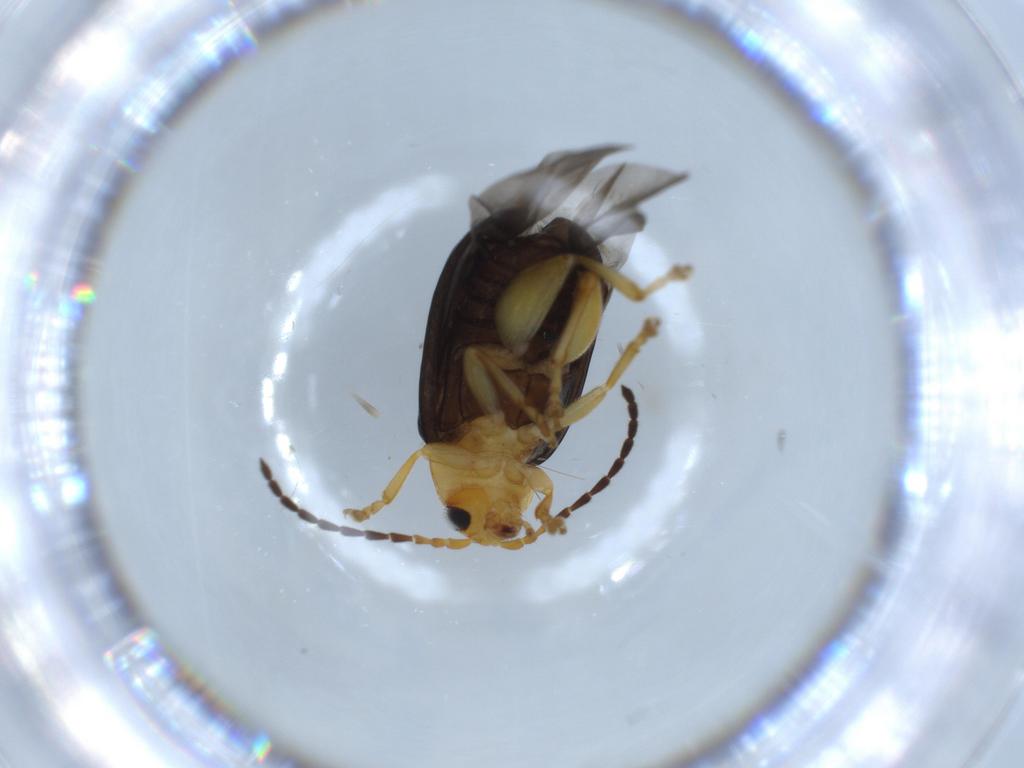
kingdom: Animalia
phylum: Arthropoda
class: Insecta
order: Coleoptera
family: Chrysomelidae
